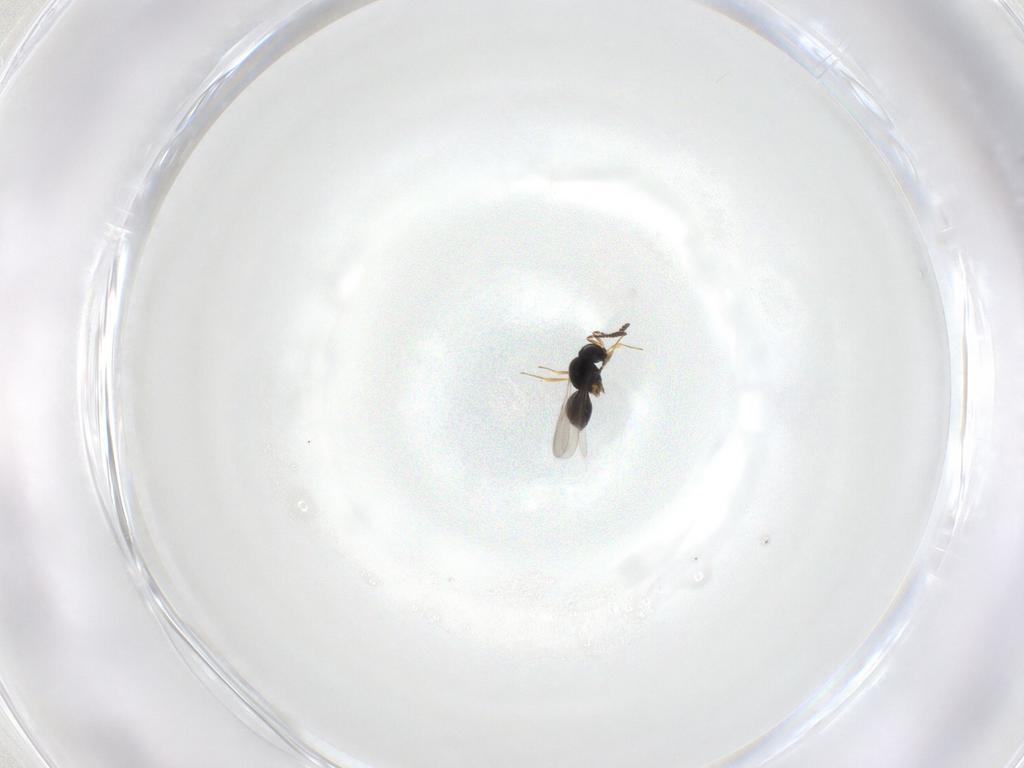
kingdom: Animalia
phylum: Arthropoda
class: Insecta
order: Hymenoptera
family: Scelionidae
